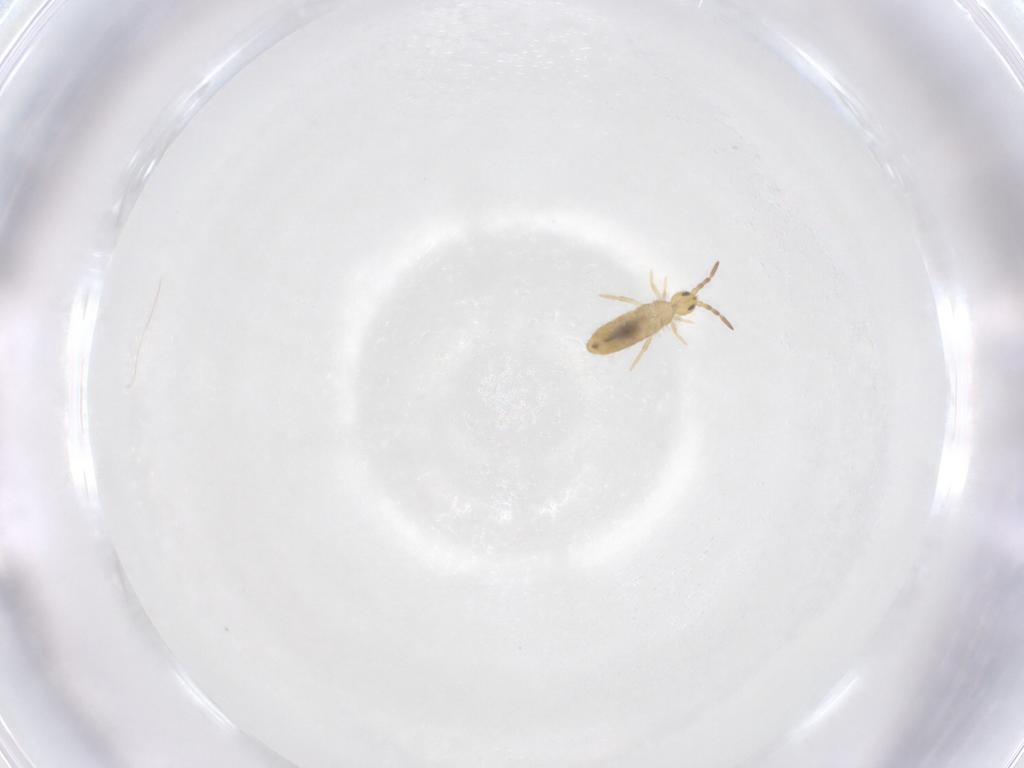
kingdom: Animalia
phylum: Arthropoda
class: Collembola
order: Entomobryomorpha
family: Entomobryidae
